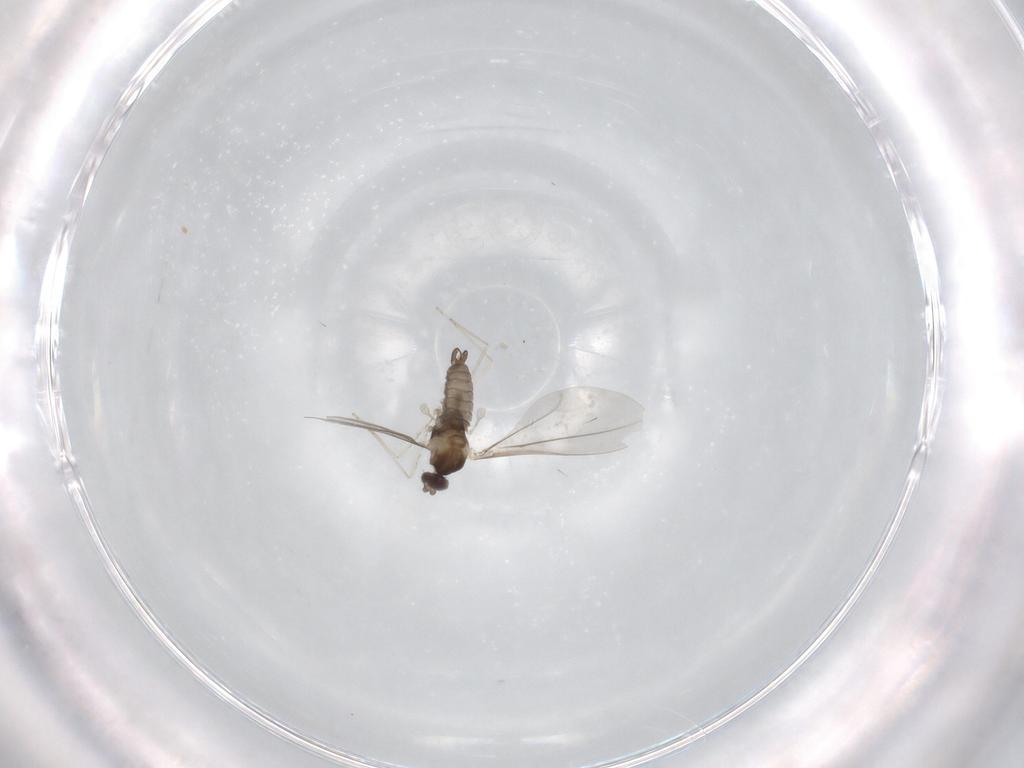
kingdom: Animalia
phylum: Arthropoda
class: Insecta
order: Diptera
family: Cecidomyiidae
